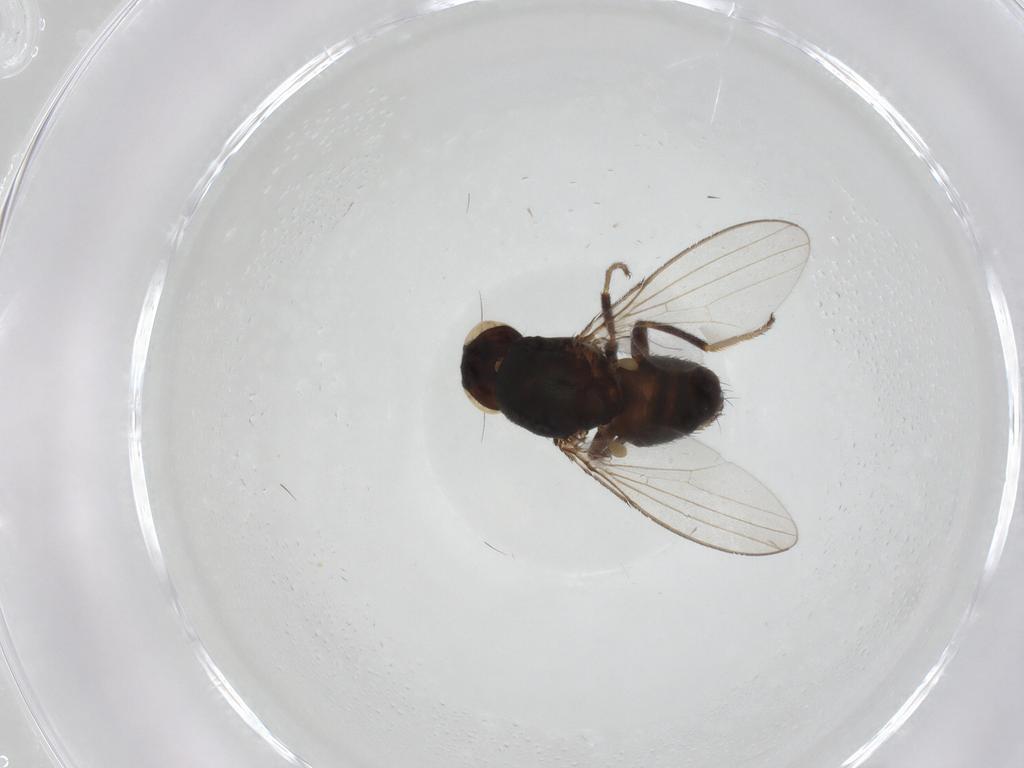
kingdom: Animalia
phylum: Arthropoda
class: Insecta
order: Diptera
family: Milichiidae
